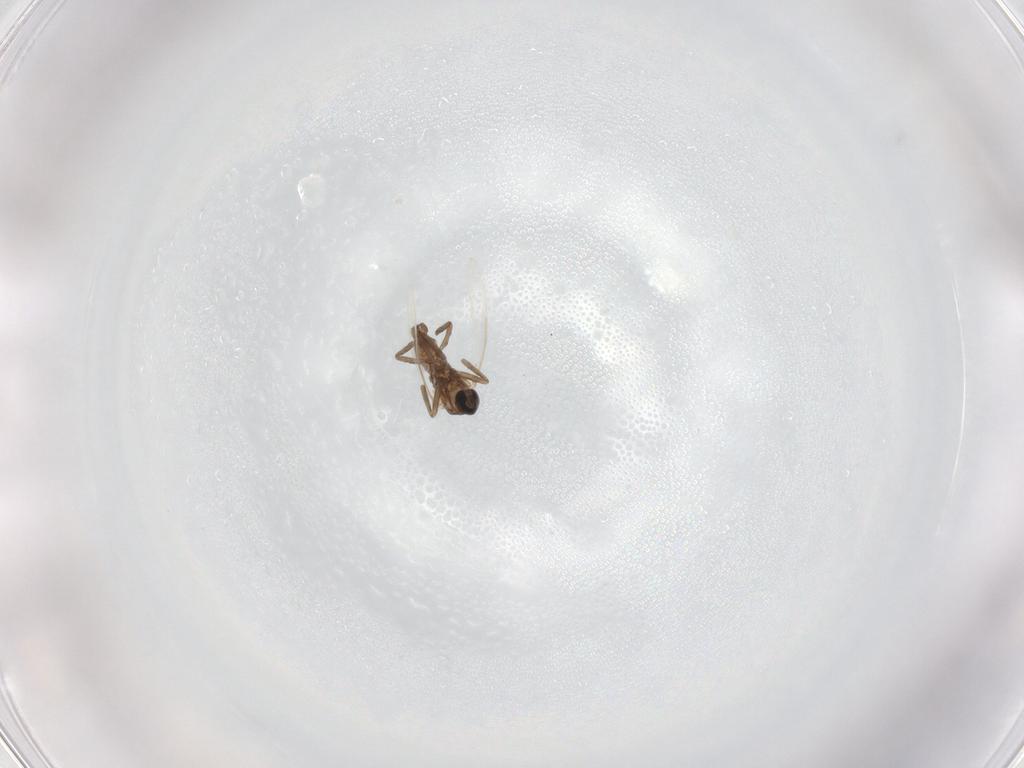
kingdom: Animalia
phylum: Arthropoda
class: Insecta
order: Diptera
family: Cecidomyiidae
